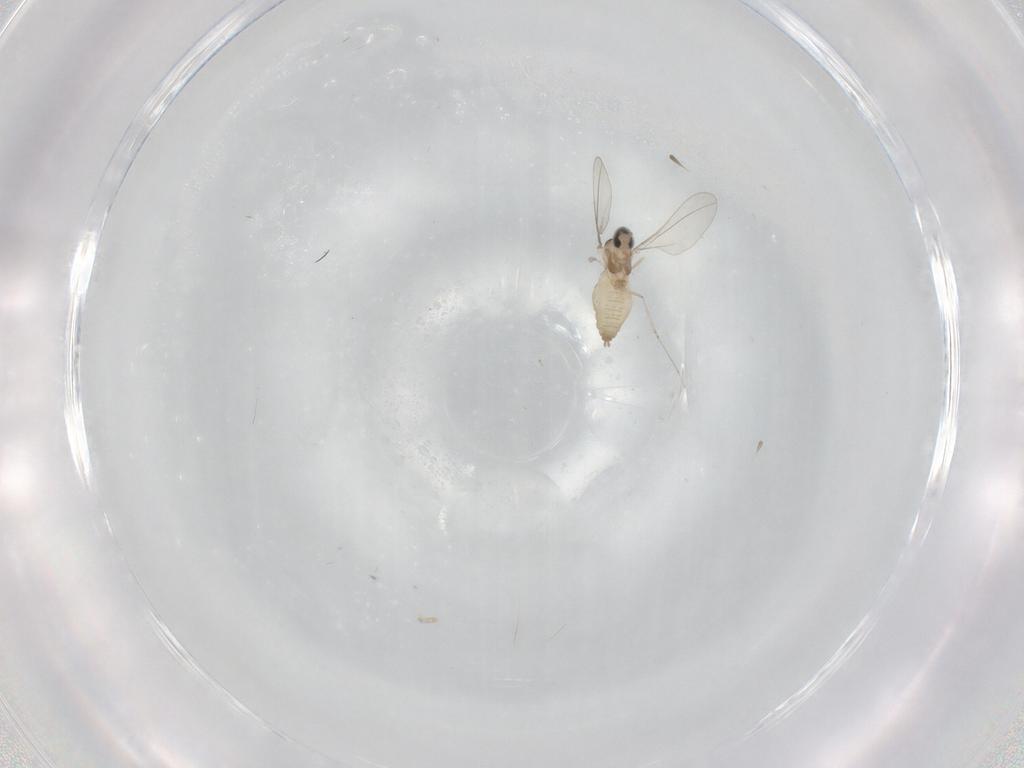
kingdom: Animalia
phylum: Arthropoda
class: Insecta
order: Diptera
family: Cecidomyiidae
